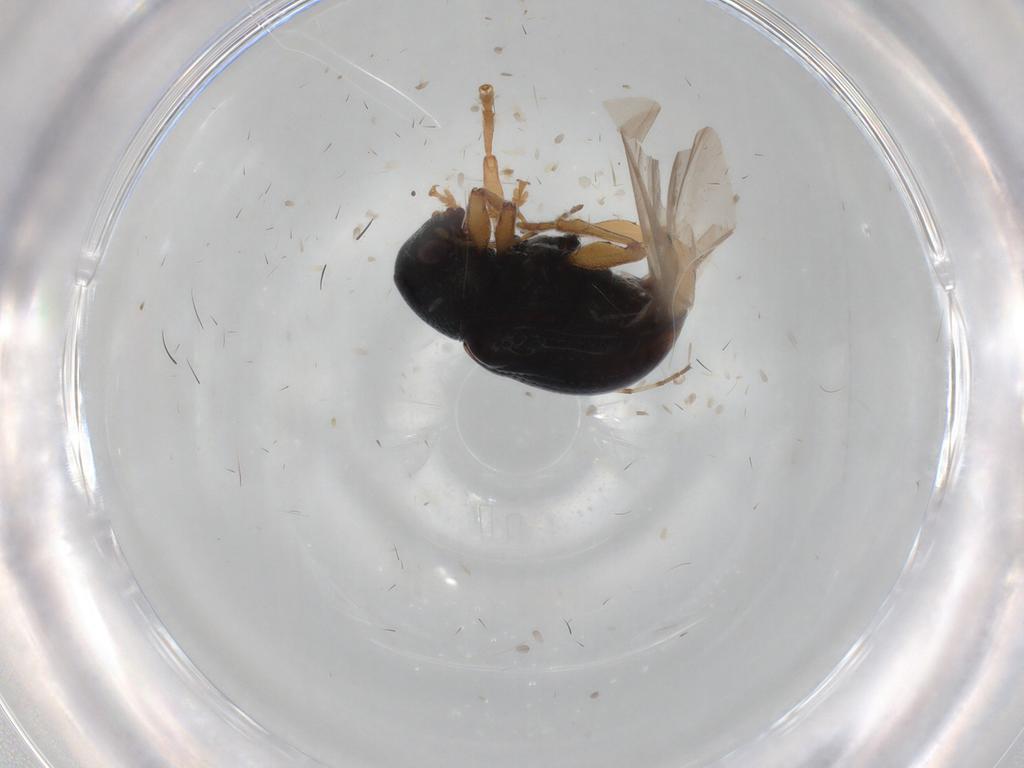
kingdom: Animalia
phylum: Arthropoda
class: Insecta
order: Coleoptera
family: Chrysomelidae
